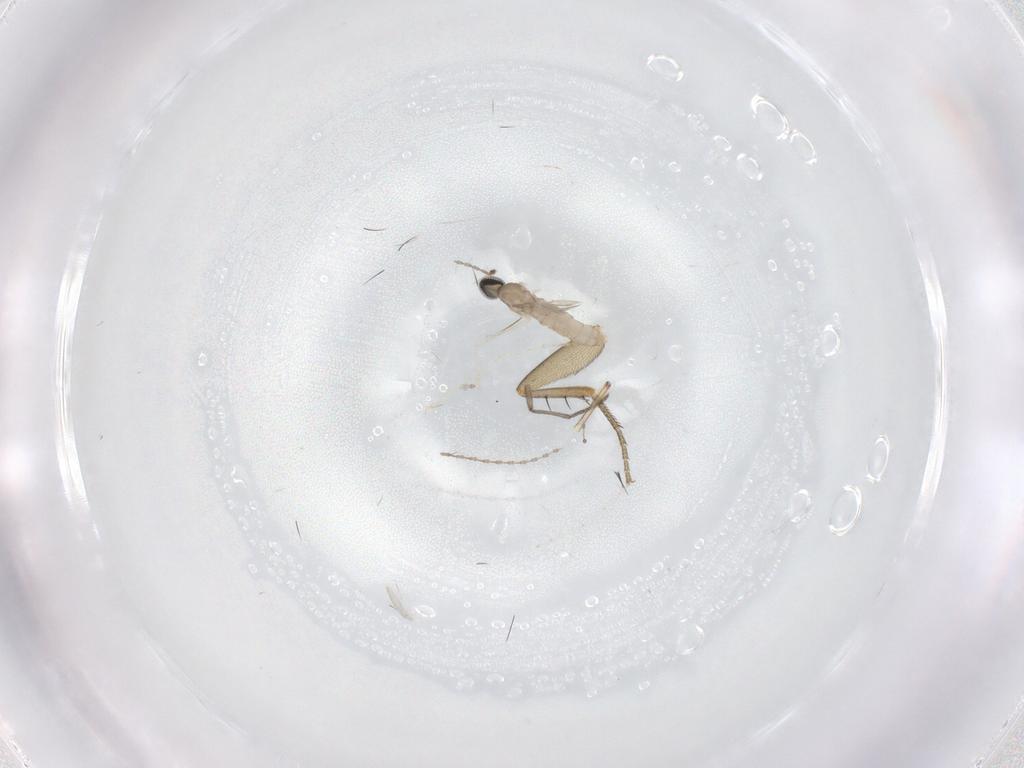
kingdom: Animalia
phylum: Arthropoda
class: Insecta
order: Diptera
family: Cecidomyiidae
